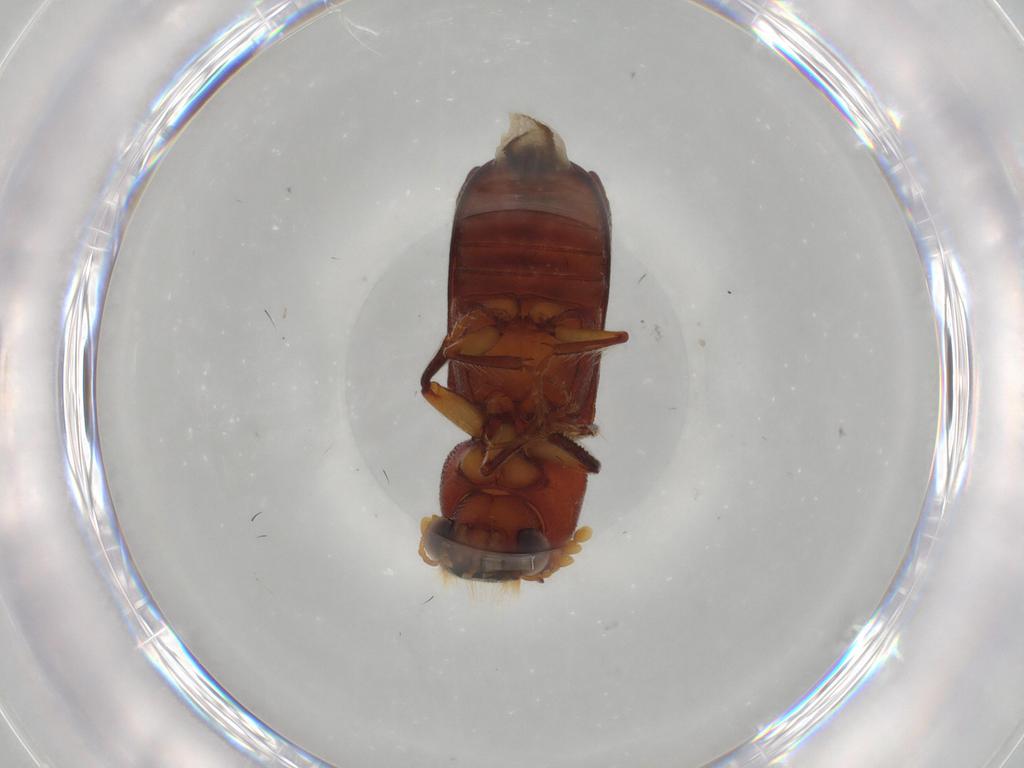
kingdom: Animalia
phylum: Arthropoda
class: Insecta
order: Coleoptera
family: Bostrichidae
